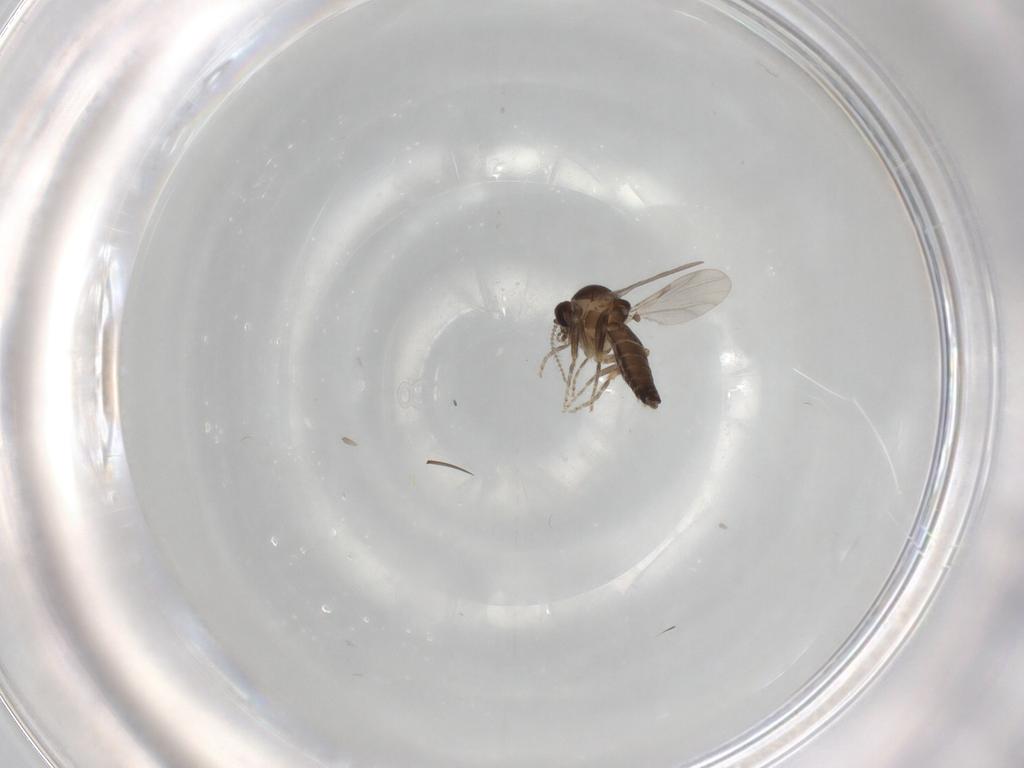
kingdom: Animalia
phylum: Arthropoda
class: Insecta
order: Diptera
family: Ceratopogonidae
